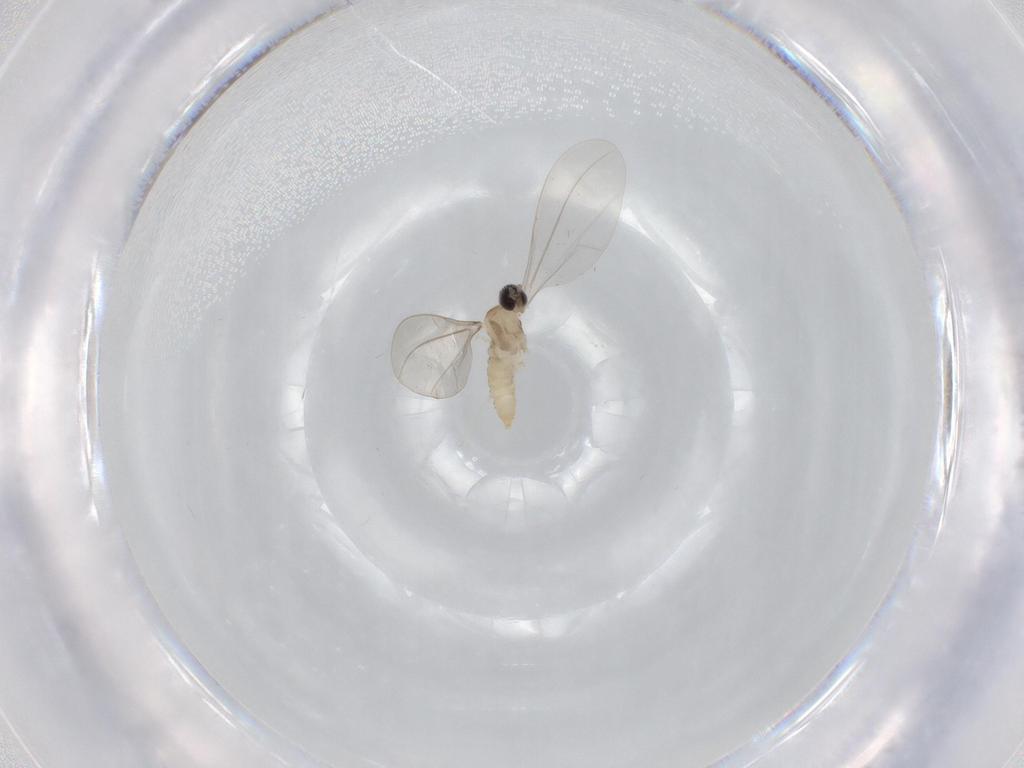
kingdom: Animalia
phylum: Arthropoda
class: Insecta
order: Diptera
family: Cecidomyiidae
